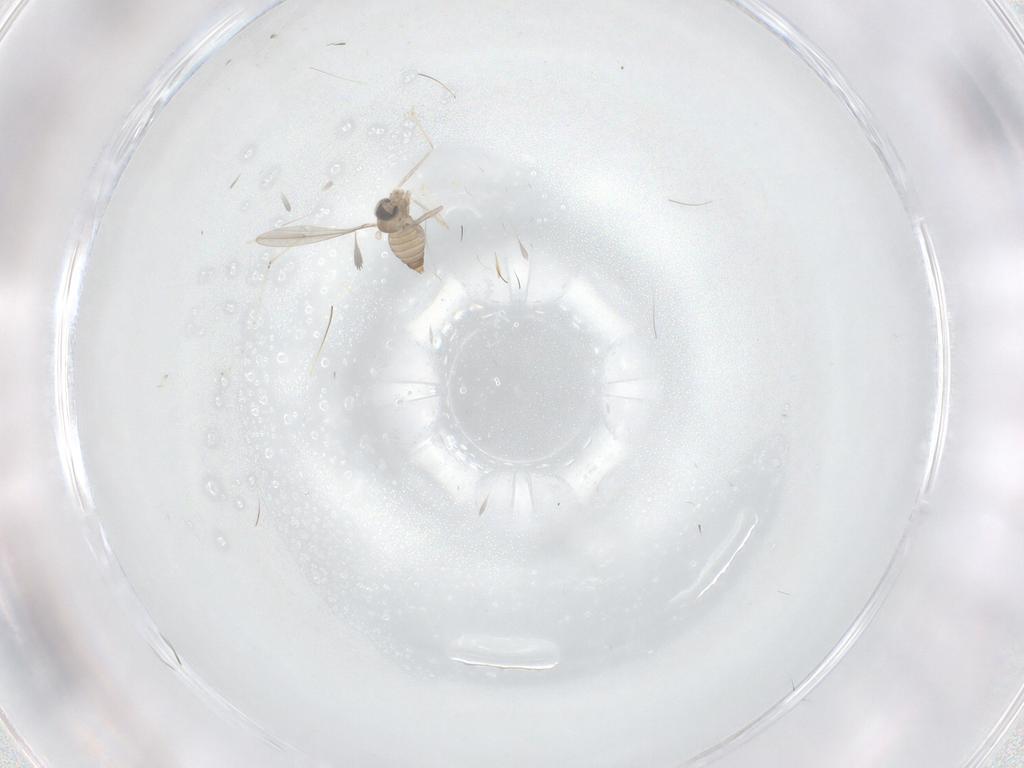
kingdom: Animalia
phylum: Arthropoda
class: Insecta
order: Diptera
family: Cecidomyiidae
